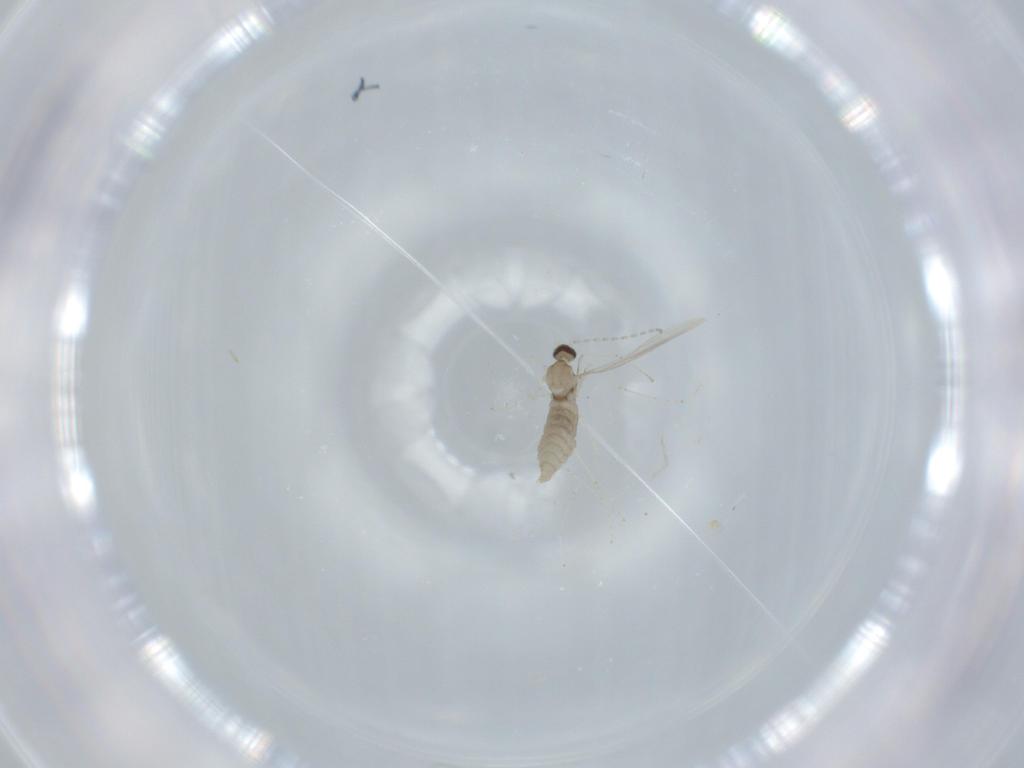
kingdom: Animalia
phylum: Arthropoda
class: Insecta
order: Diptera
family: Cecidomyiidae
